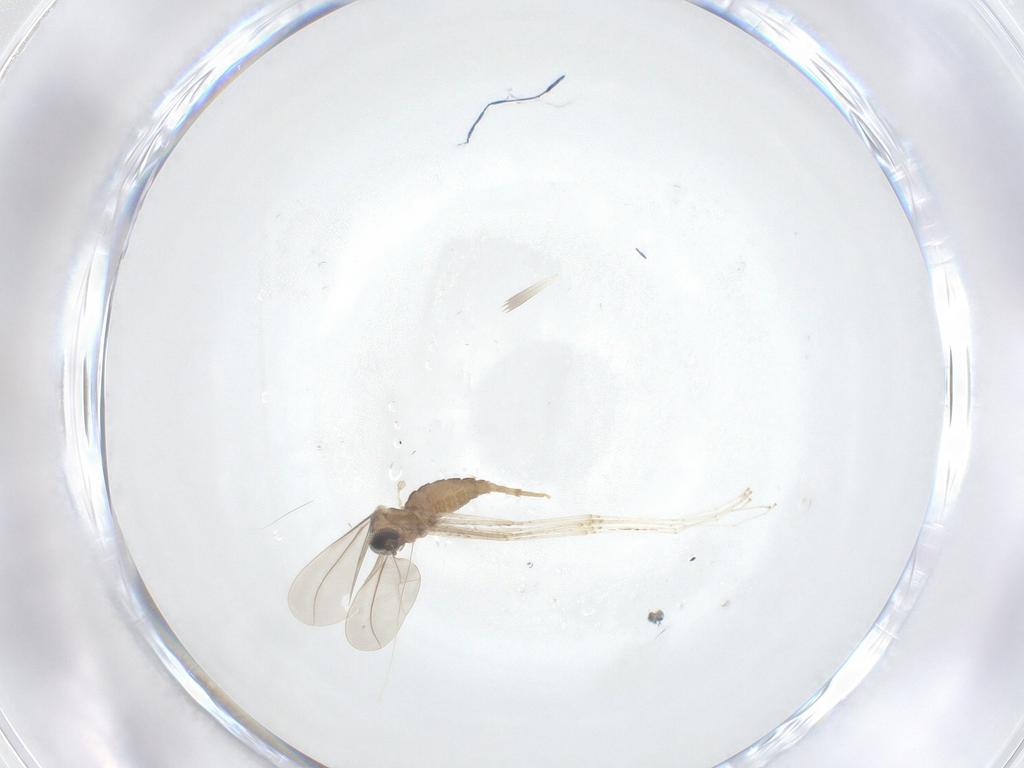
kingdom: Animalia
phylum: Arthropoda
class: Insecta
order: Diptera
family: Cecidomyiidae
